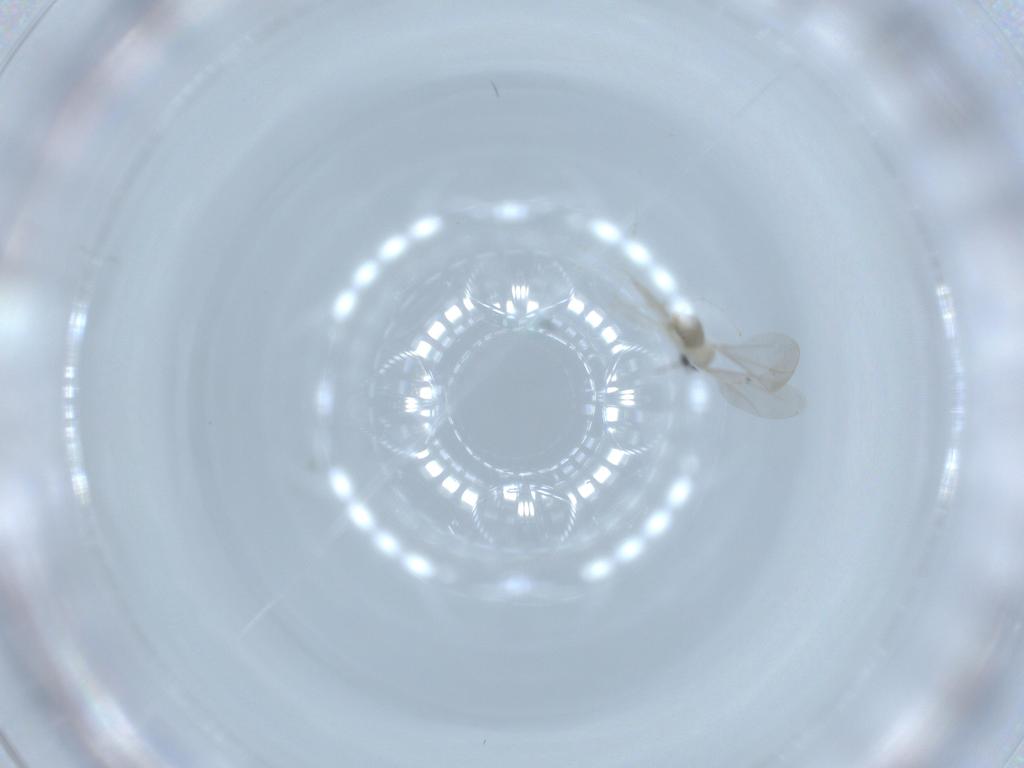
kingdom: Animalia
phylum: Arthropoda
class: Insecta
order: Diptera
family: Cecidomyiidae
